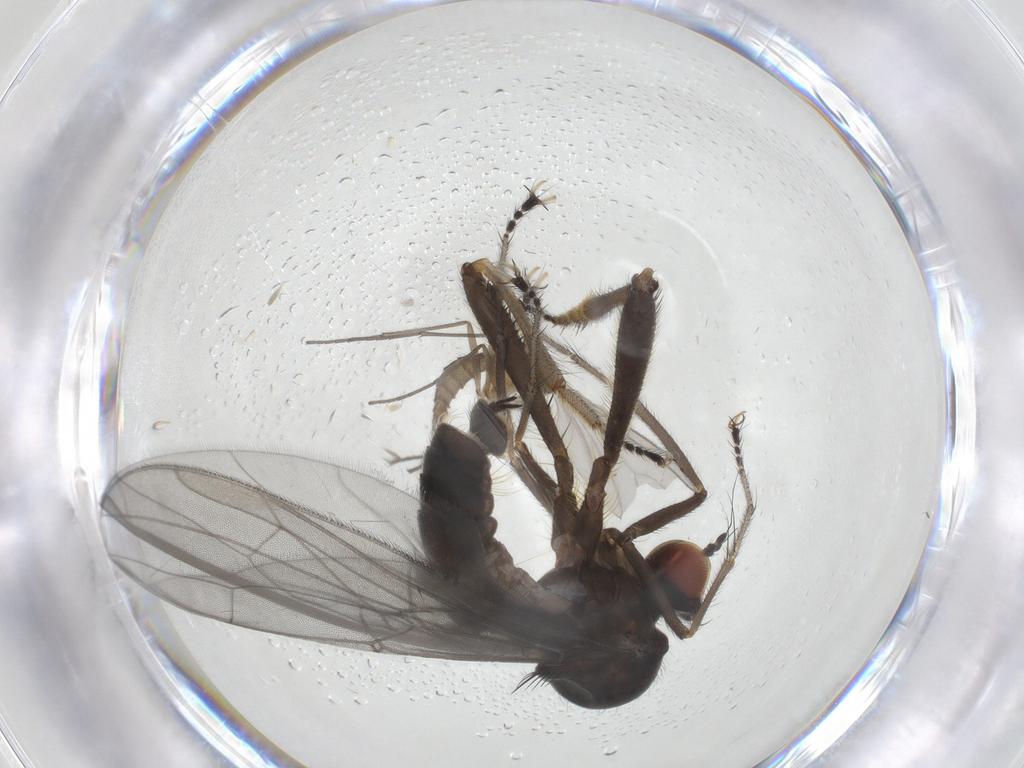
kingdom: Animalia
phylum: Arthropoda
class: Insecta
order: Diptera
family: Hybotidae
